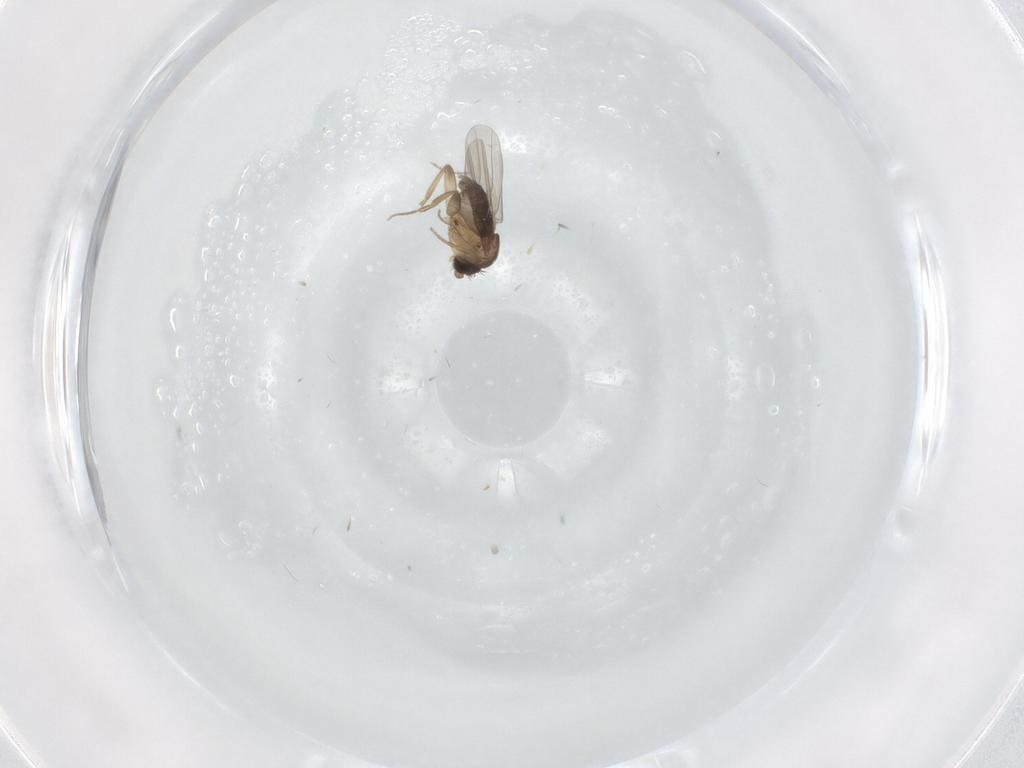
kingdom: Animalia
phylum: Arthropoda
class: Insecta
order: Diptera
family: Cecidomyiidae
